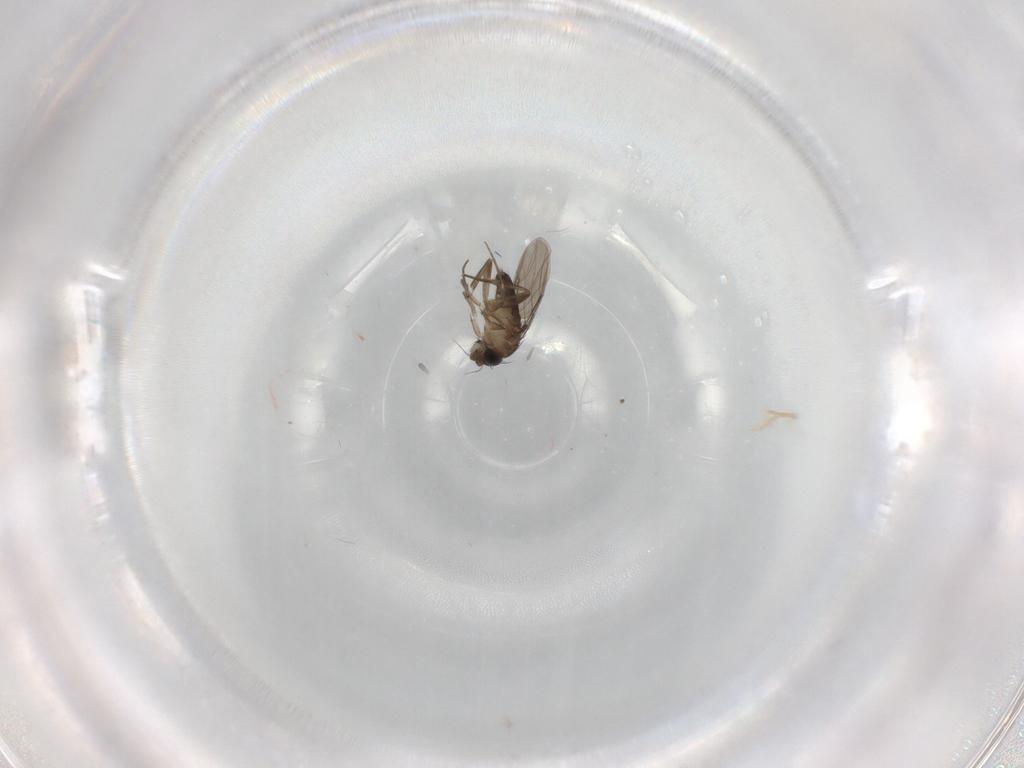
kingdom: Animalia
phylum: Arthropoda
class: Insecta
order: Diptera
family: Phoridae
